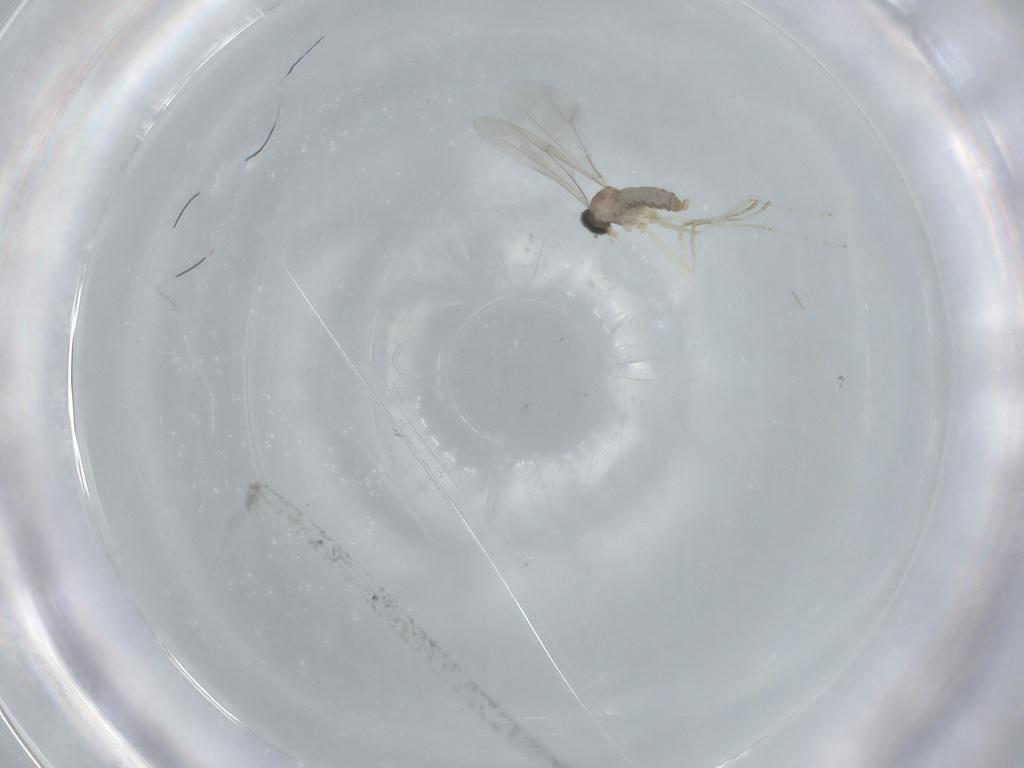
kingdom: Animalia
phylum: Arthropoda
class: Insecta
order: Diptera
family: Cecidomyiidae
